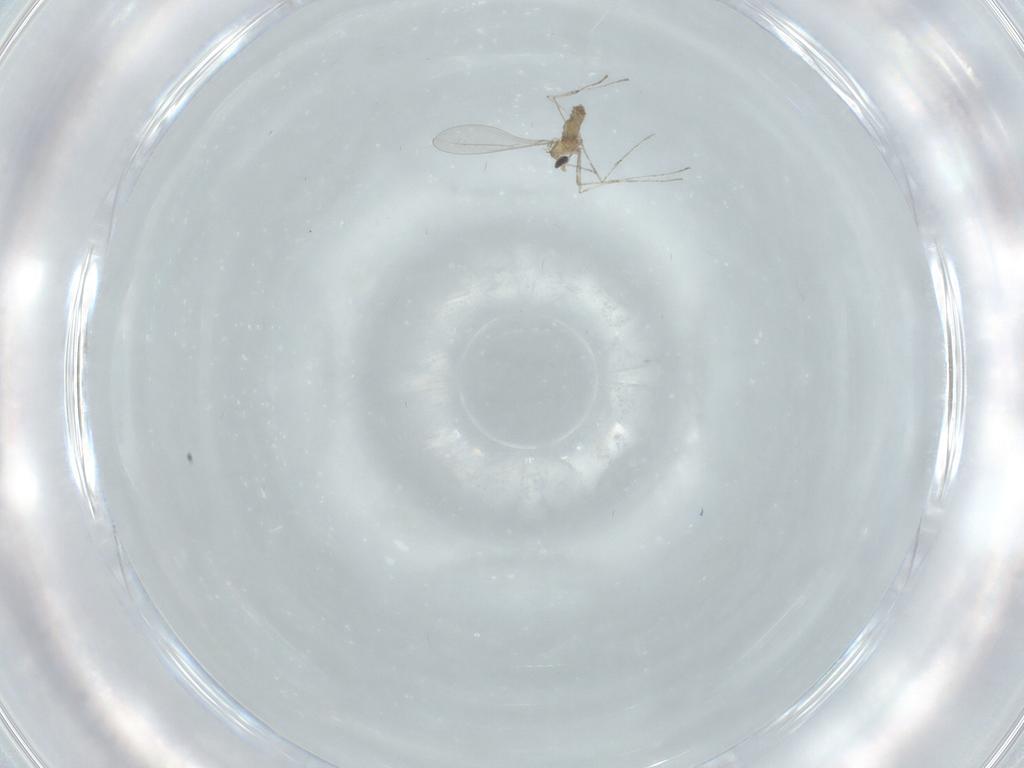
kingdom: Animalia
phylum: Arthropoda
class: Insecta
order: Diptera
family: Cecidomyiidae
